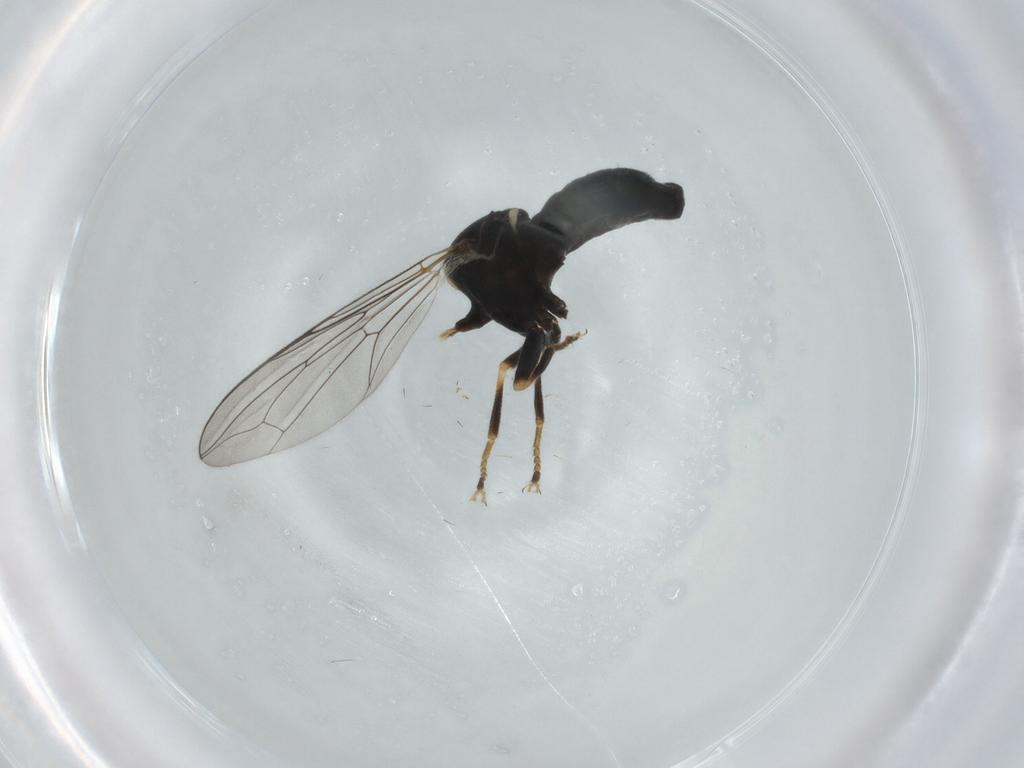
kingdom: Animalia
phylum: Arthropoda
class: Insecta
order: Diptera
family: Pipunculidae
